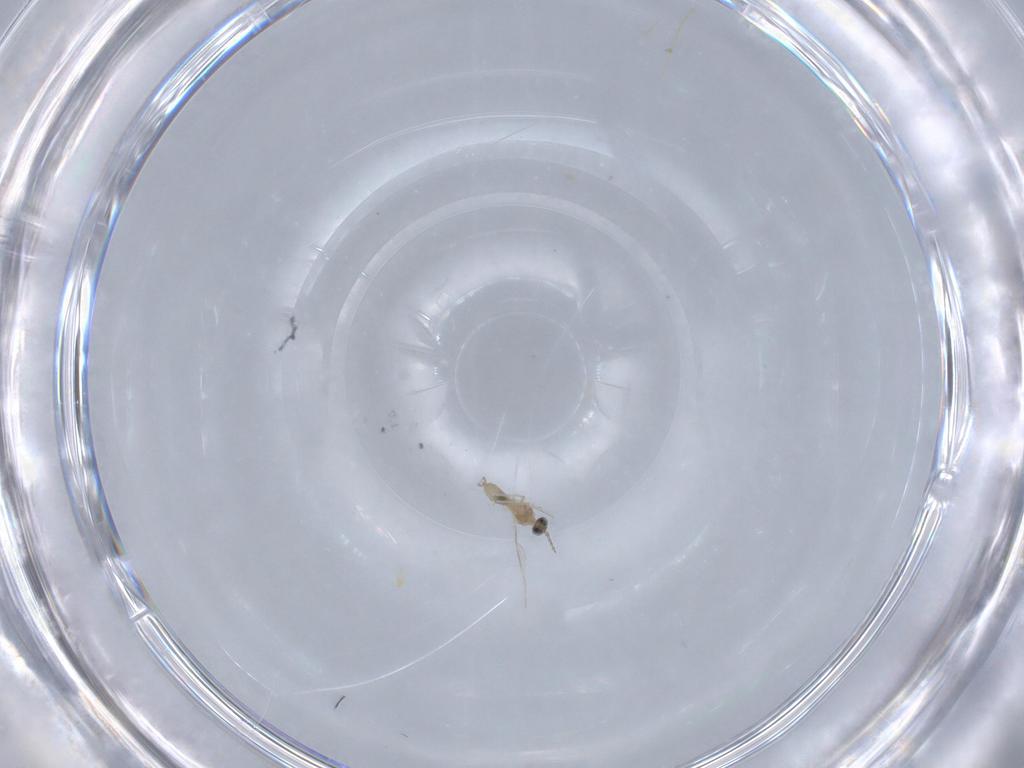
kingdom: Animalia
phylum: Arthropoda
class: Insecta
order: Diptera
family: Cecidomyiidae
